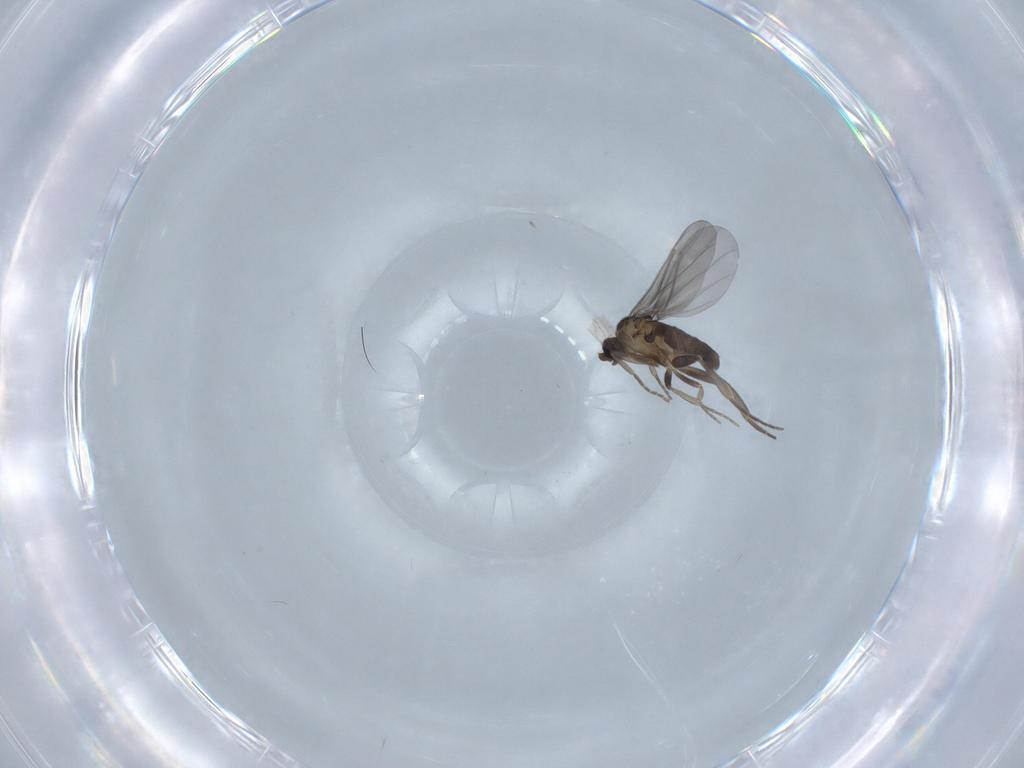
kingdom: Animalia
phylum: Arthropoda
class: Insecta
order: Diptera
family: Phoridae
